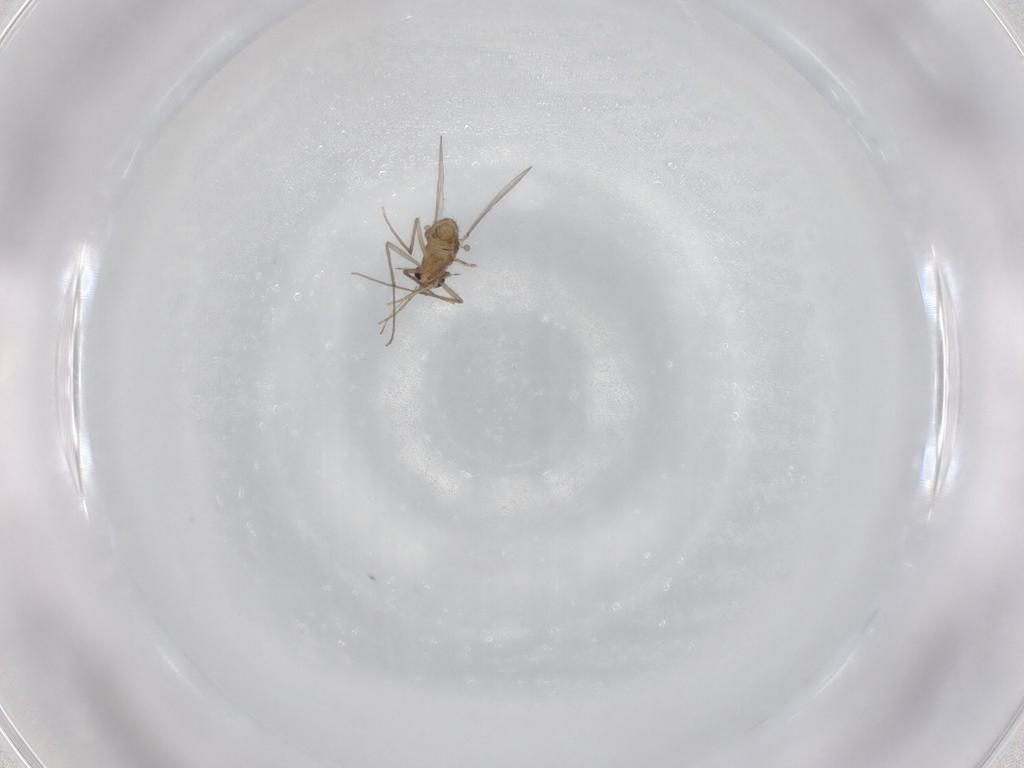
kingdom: Animalia
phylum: Arthropoda
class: Insecta
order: Diptera
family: Chironomidae
